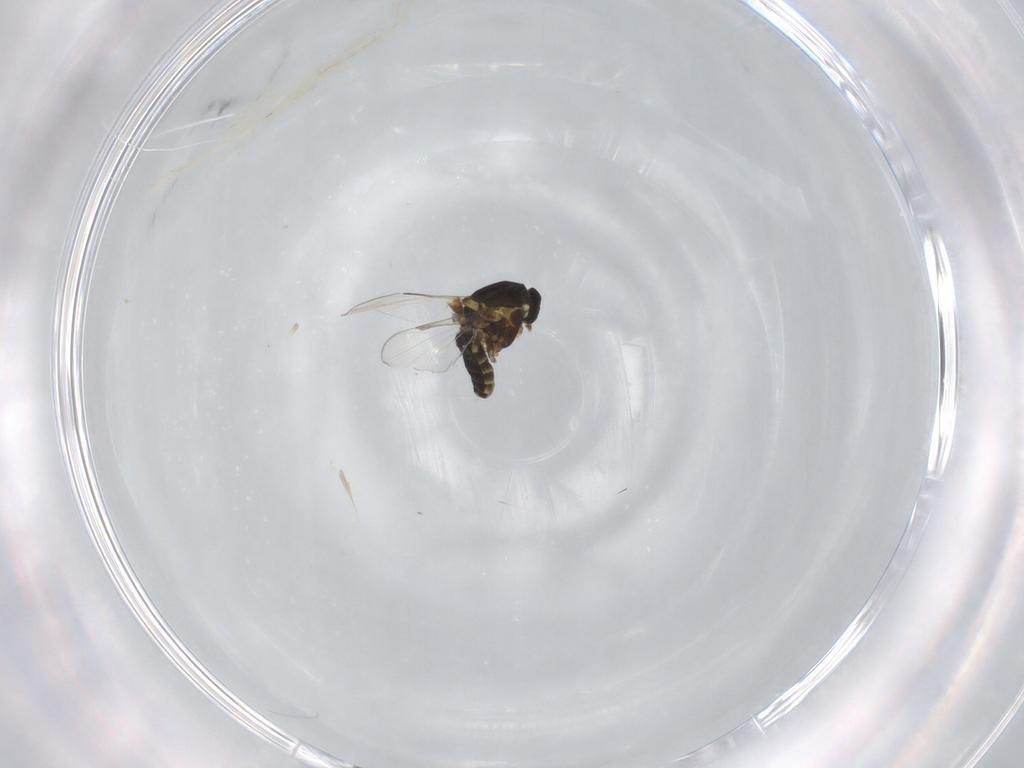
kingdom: Animalia
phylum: Arthropoda
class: Insecta
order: Diptera
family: Ceratopogonidae
